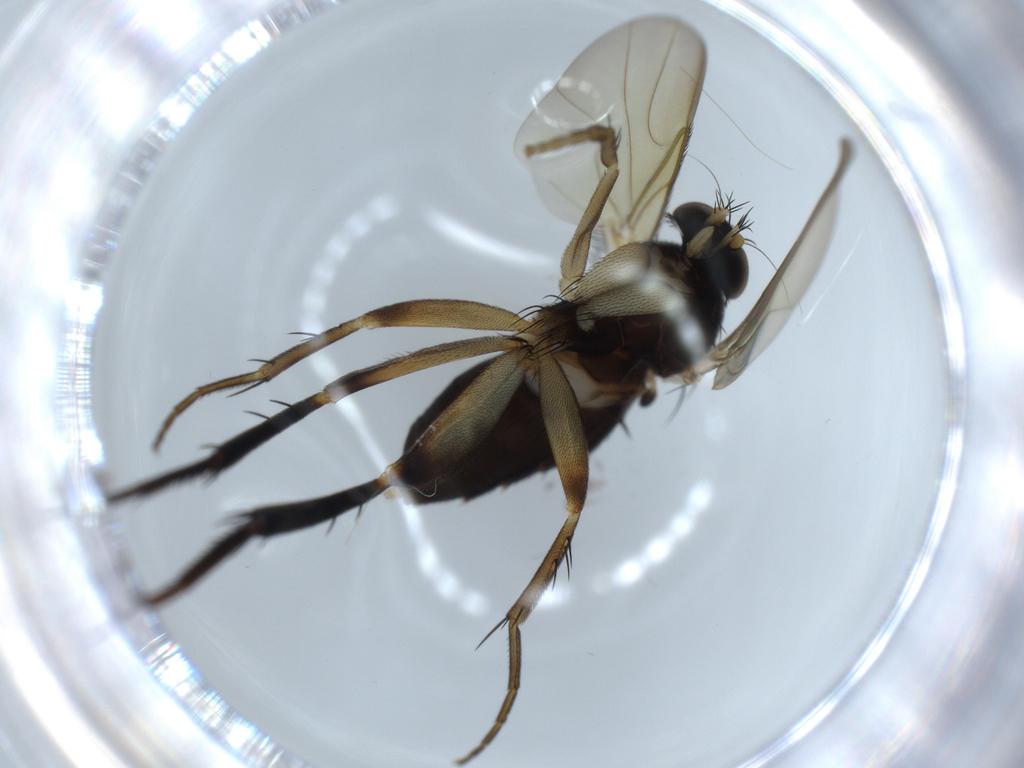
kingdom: Animalia
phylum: Arthropoda
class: Insecta
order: Diptera
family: Phoridae
